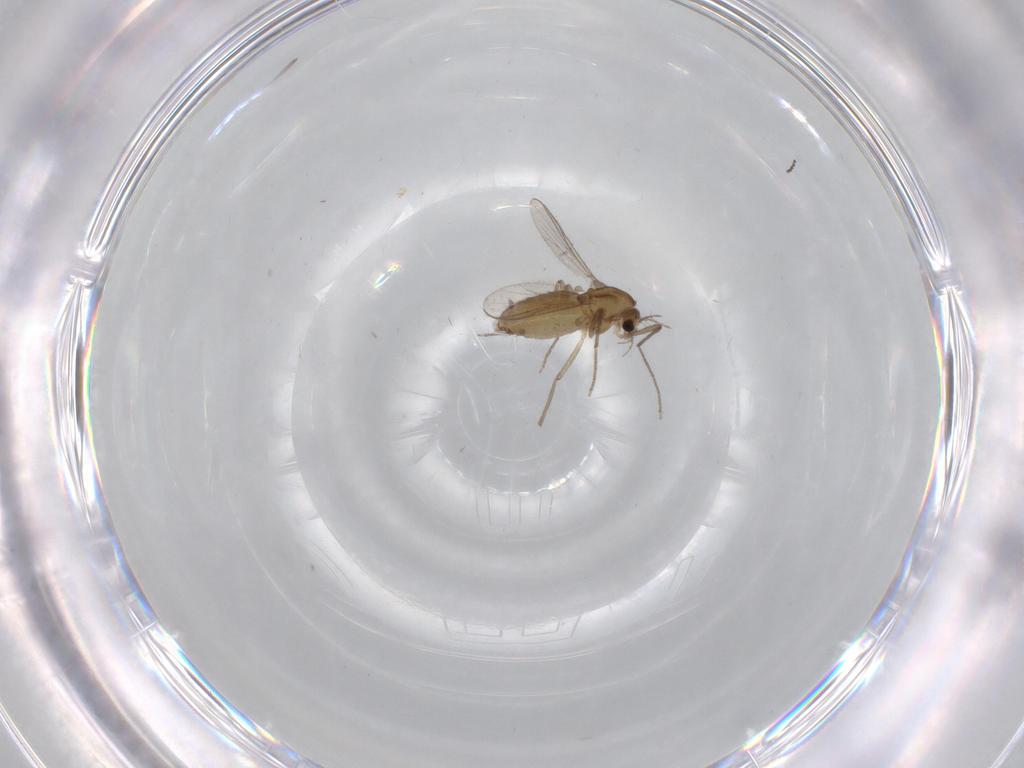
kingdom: Animalia
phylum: Arthropoda
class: Insecta
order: Diptera
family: Chironomidae
